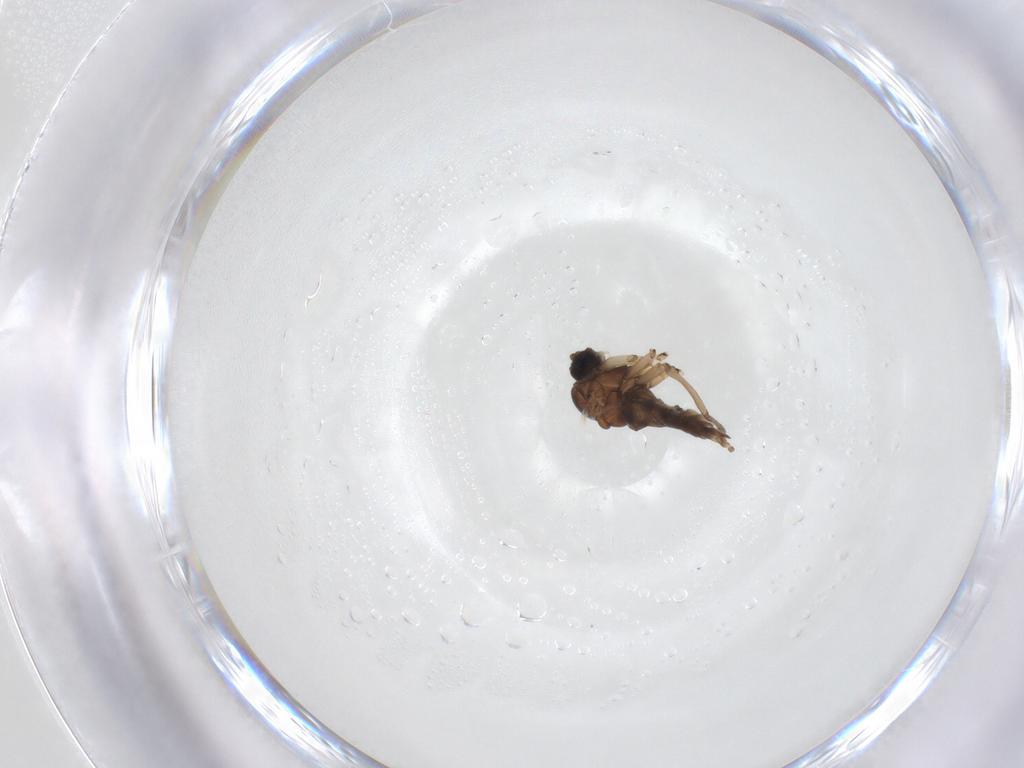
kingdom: Animalia
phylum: Arthropoda
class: Insecta
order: Diptera
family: Sciaridae
